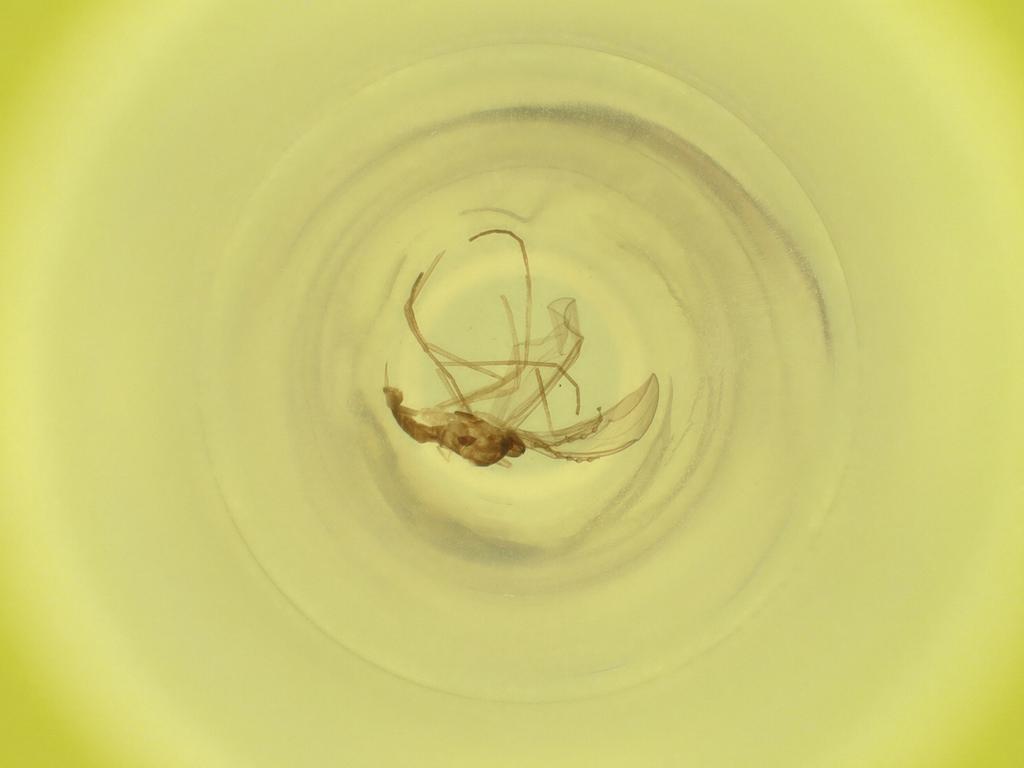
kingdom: Animalia
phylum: Arthropoda
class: Insecta
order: Diptera
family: Cecidomyiidae
